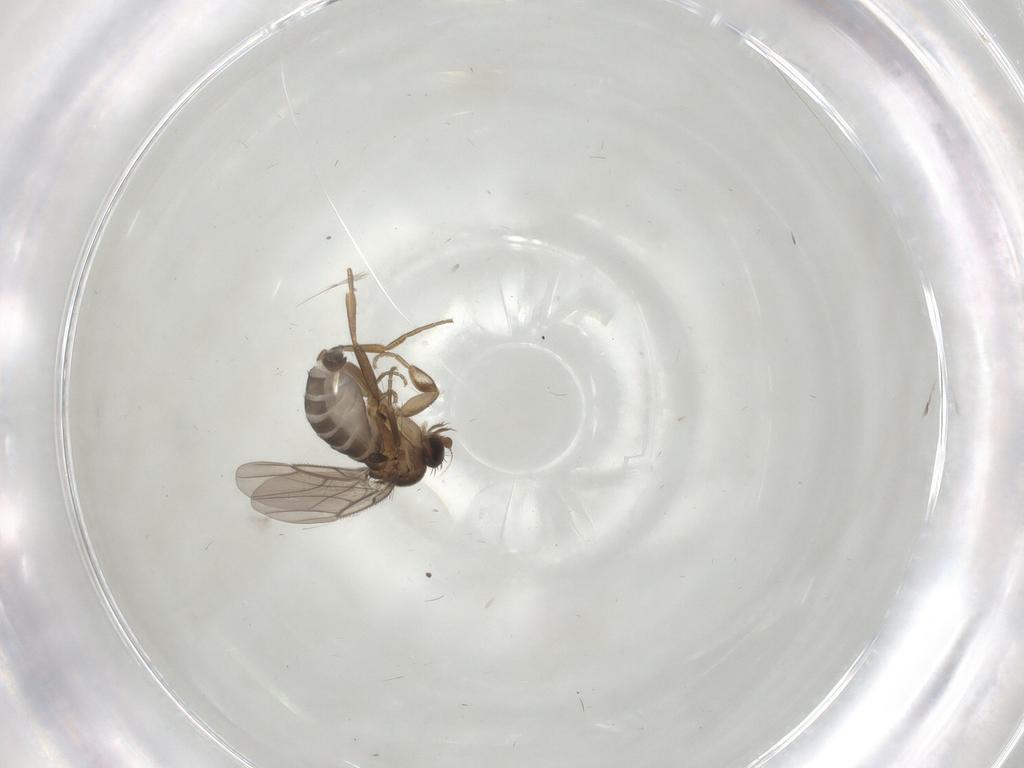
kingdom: Animalia
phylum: Arthropoda
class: Insecta
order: Diptera
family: Phoridae
